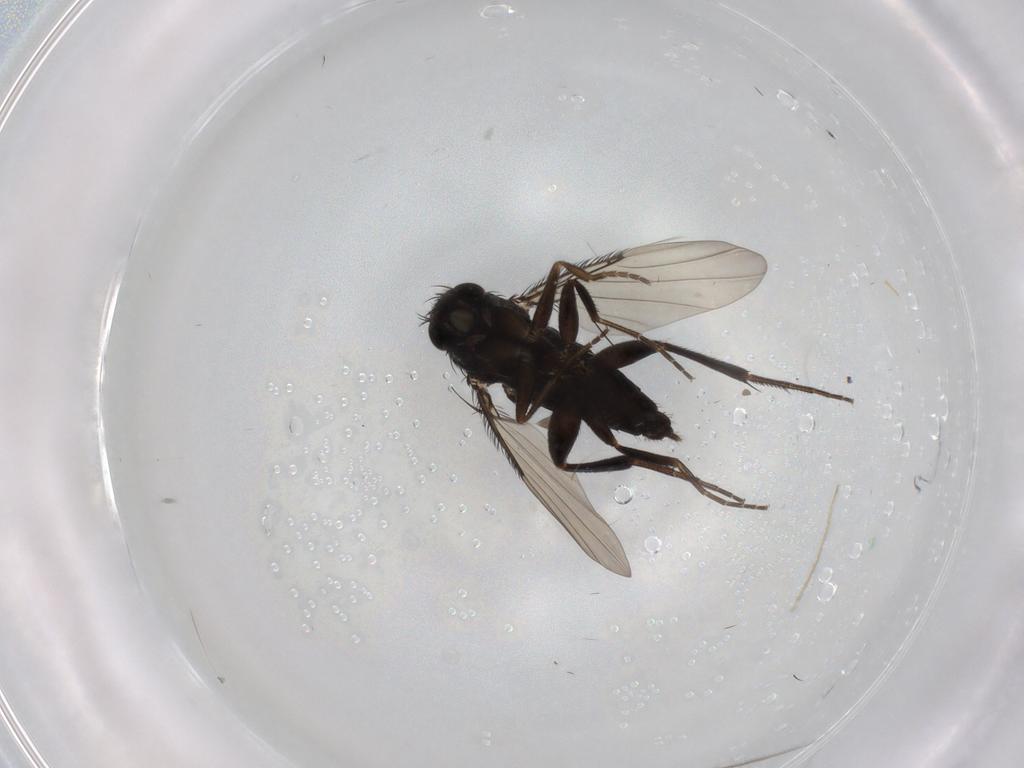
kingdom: Animalia
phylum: Arthropoda
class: Insecta
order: Diptera
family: Phoridae
